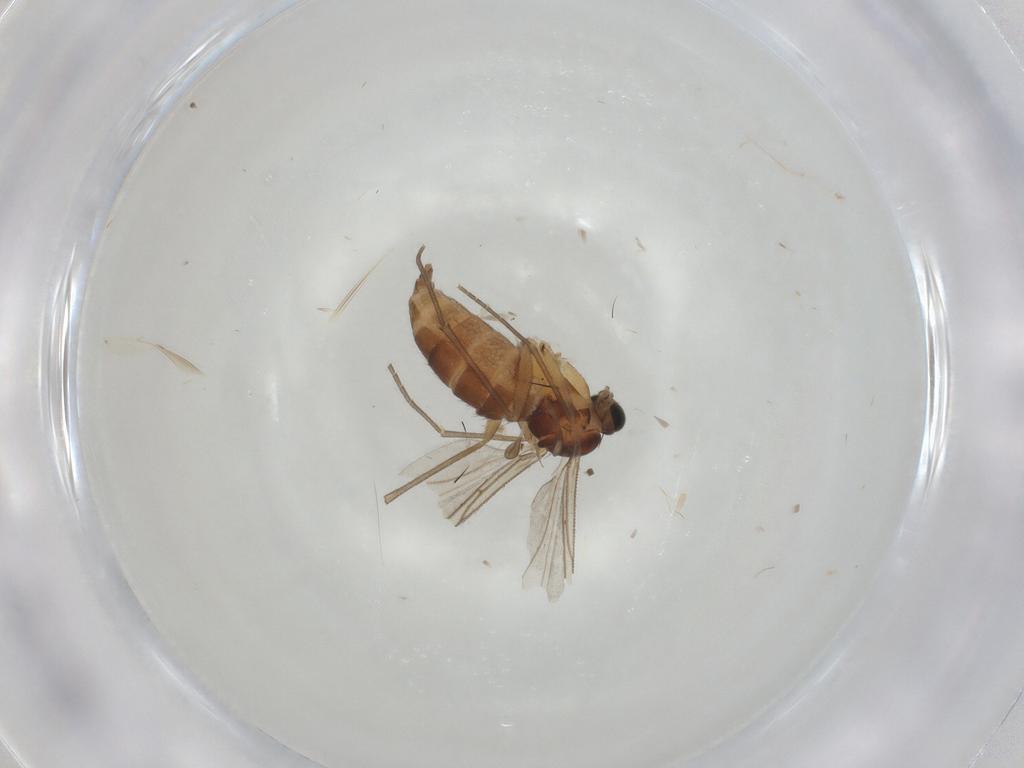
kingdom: Animalia
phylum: Arthropoda
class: Insecta
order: Diptera
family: Sciaridae
